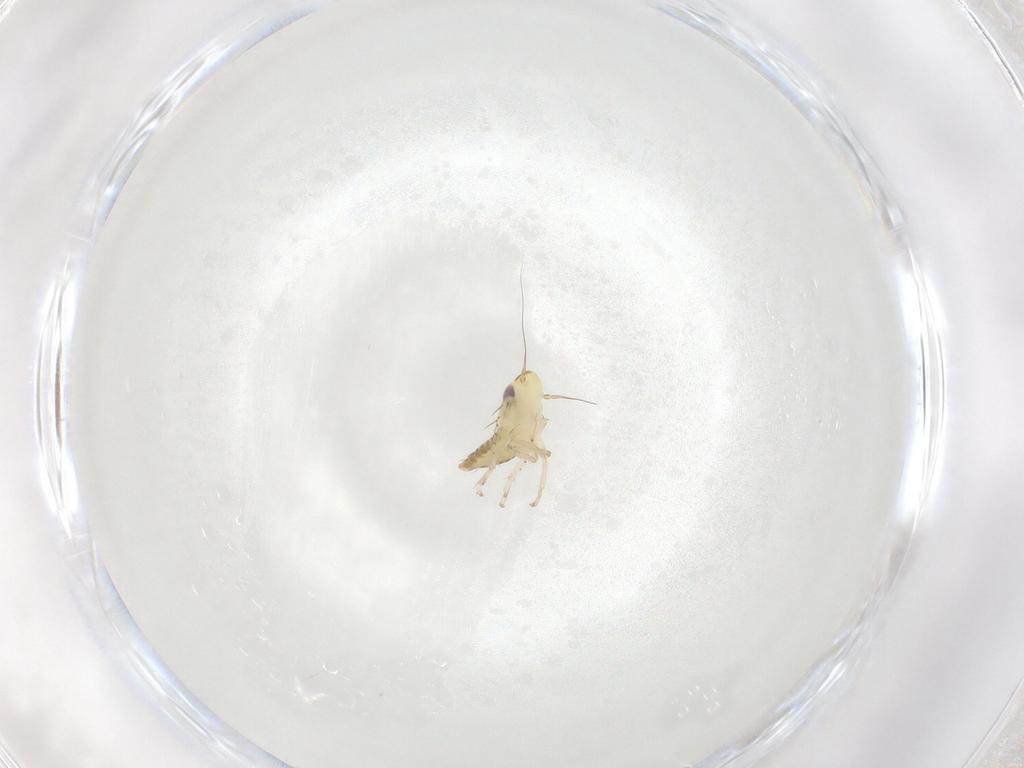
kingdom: Animalia
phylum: Arthropoda
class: Insecta
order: Hemiptera
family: Cicadellidae
